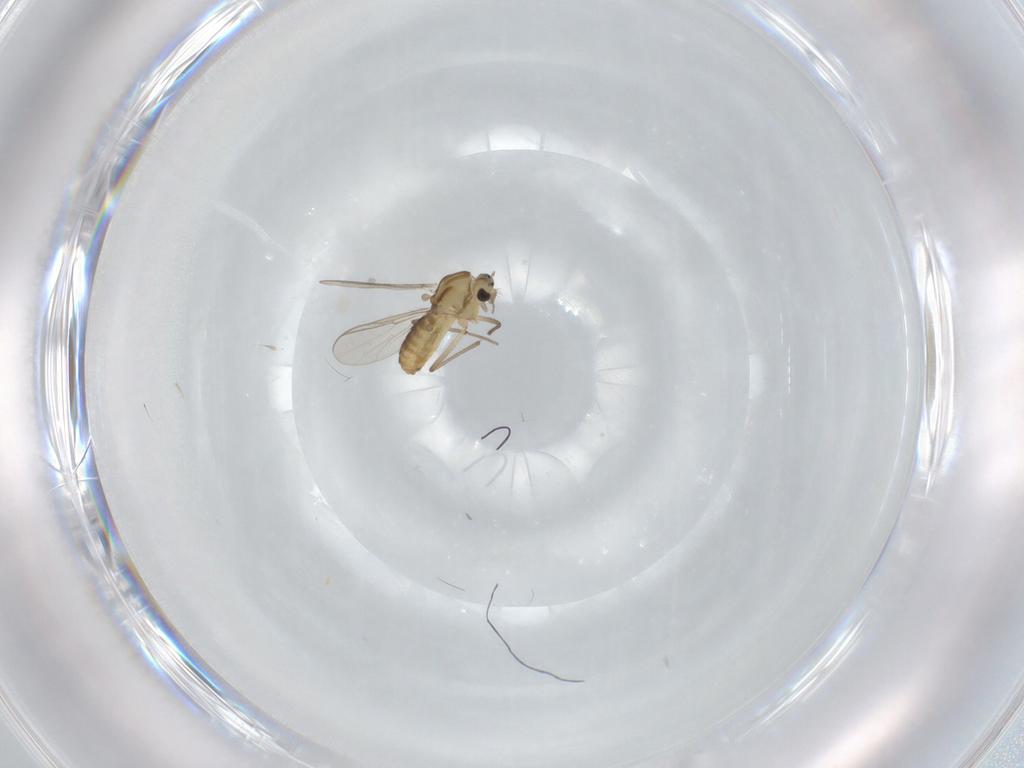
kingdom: Animalia
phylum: Arthropoda
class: Insecta
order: Diptera
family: Chironomidae
